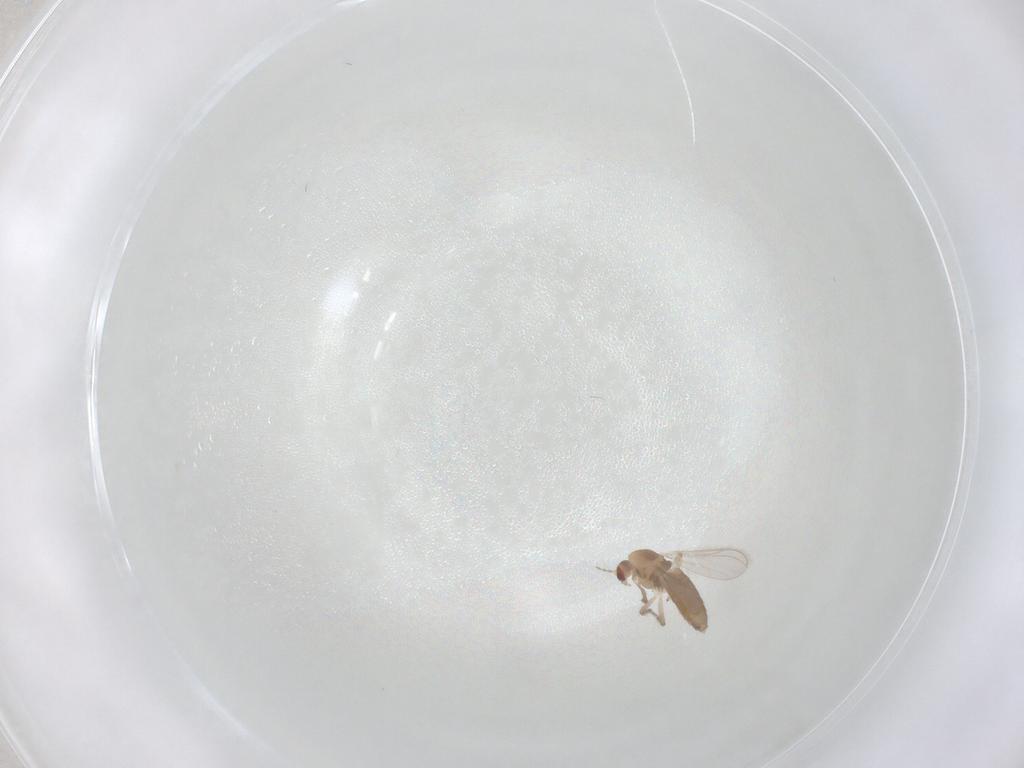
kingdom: Animalia
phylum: Arthropoda
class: Insecta
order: Diptera
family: Chironomidae
